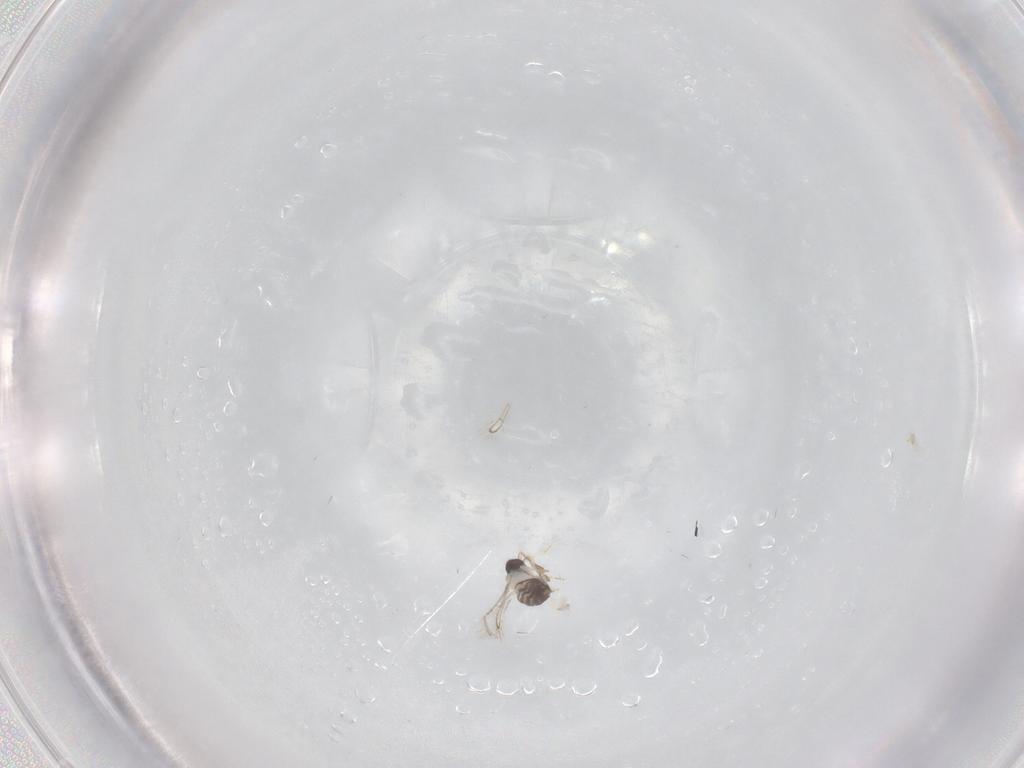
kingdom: Animalia
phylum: Arthropoda
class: Insecta
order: Diptera
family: Sciaridae
